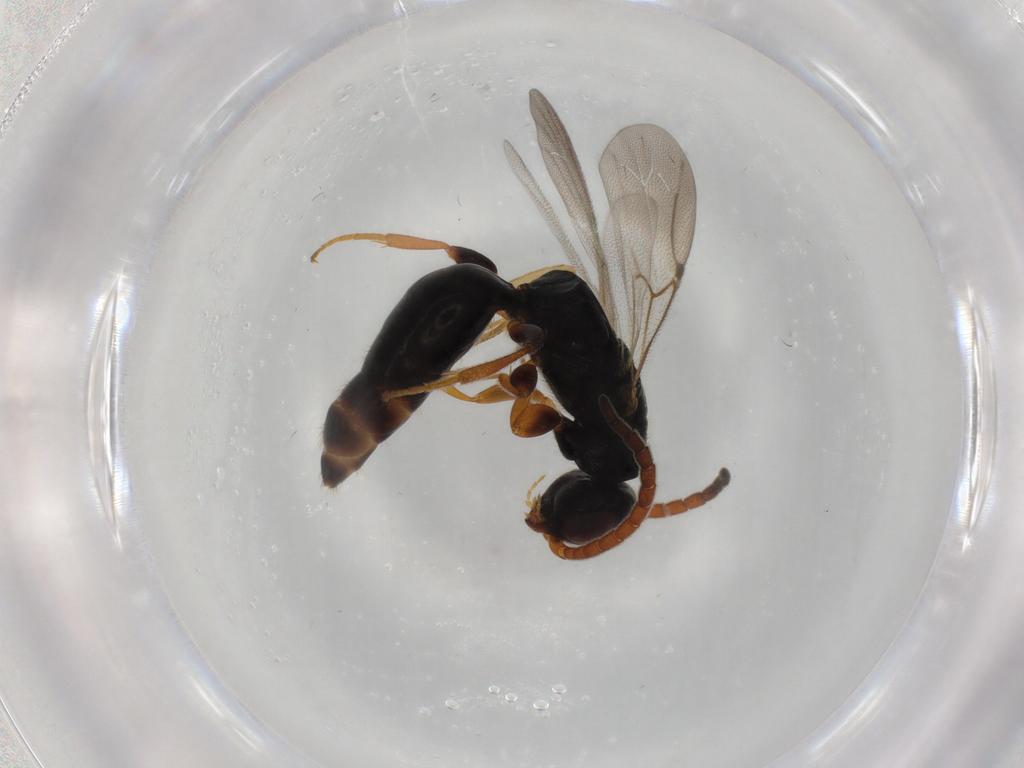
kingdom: Animalia
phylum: Arthropoda
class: Insecta
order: Hymenoptera
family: Bethylidae
